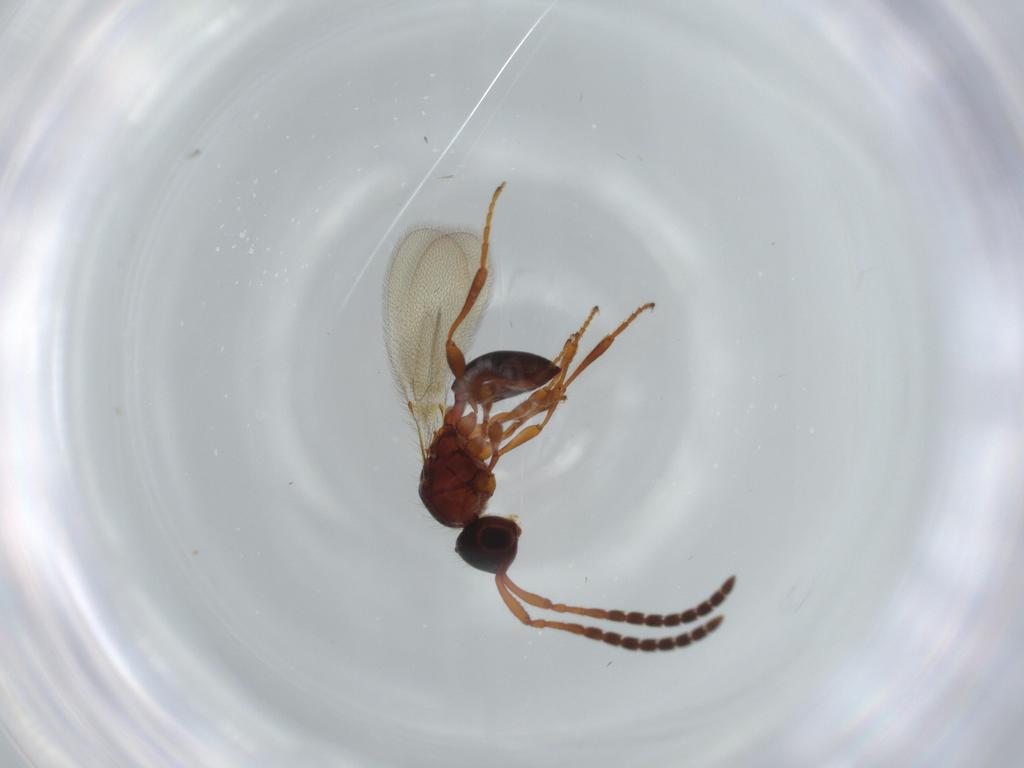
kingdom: Animalia
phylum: Arthropoda
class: Insecta
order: Hymenoptera
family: Diapriidae
